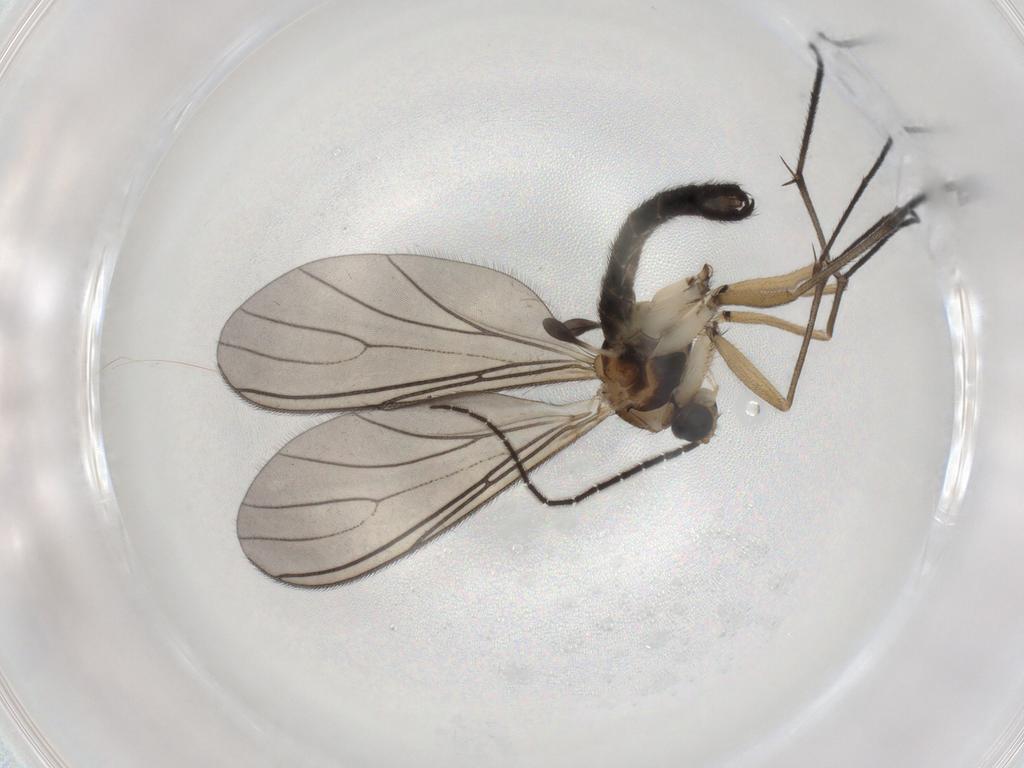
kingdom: Animalia
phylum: Arthropoda
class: Insecta
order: Diptera
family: Sciaridae
